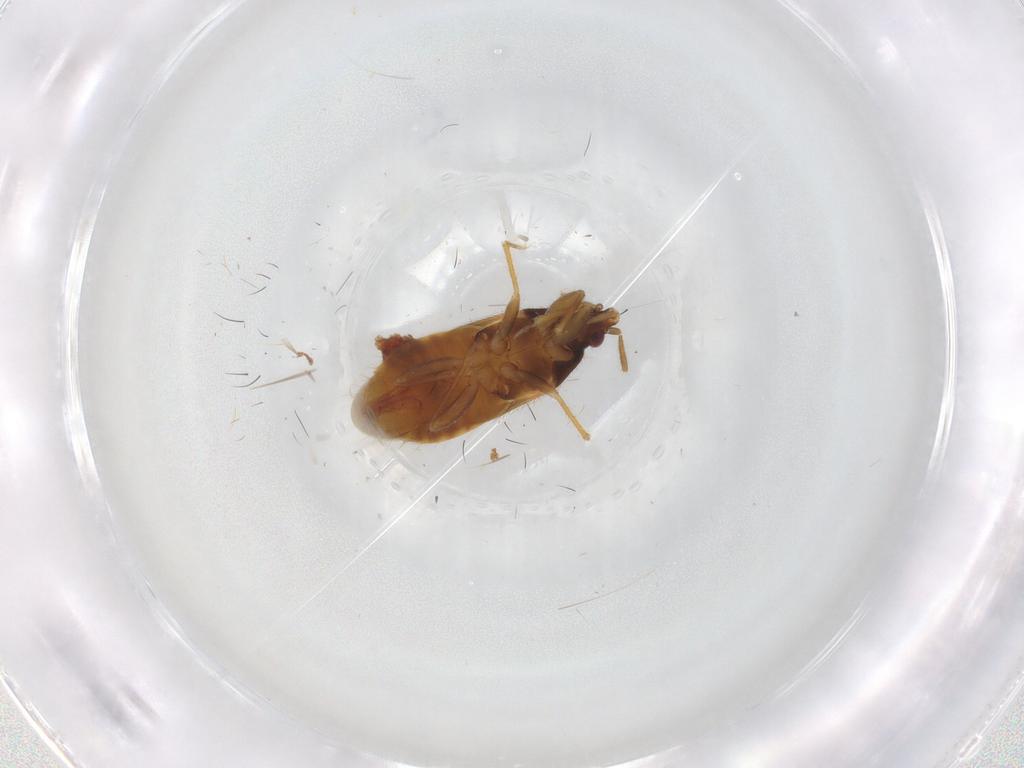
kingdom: Animalia
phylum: Arthropoda
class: Insecta
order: Hemiptera
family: Lasiochilidae
